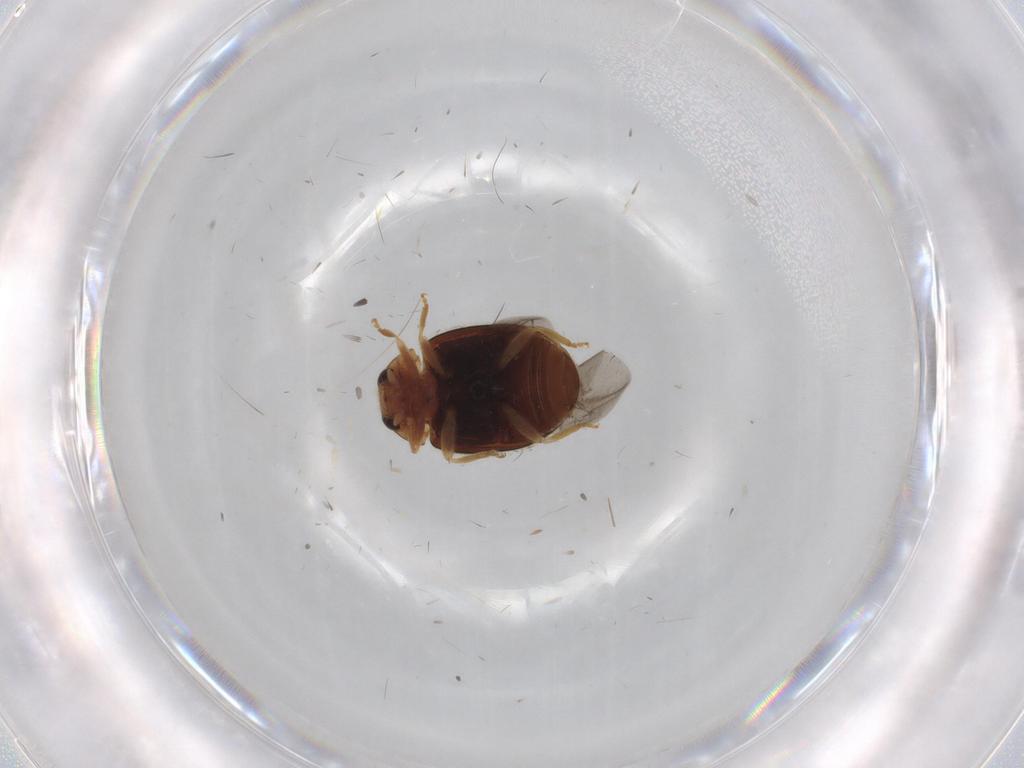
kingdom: Animalia
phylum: Arthropoda
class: Insecta
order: Coleoptera
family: Coccinellidae
